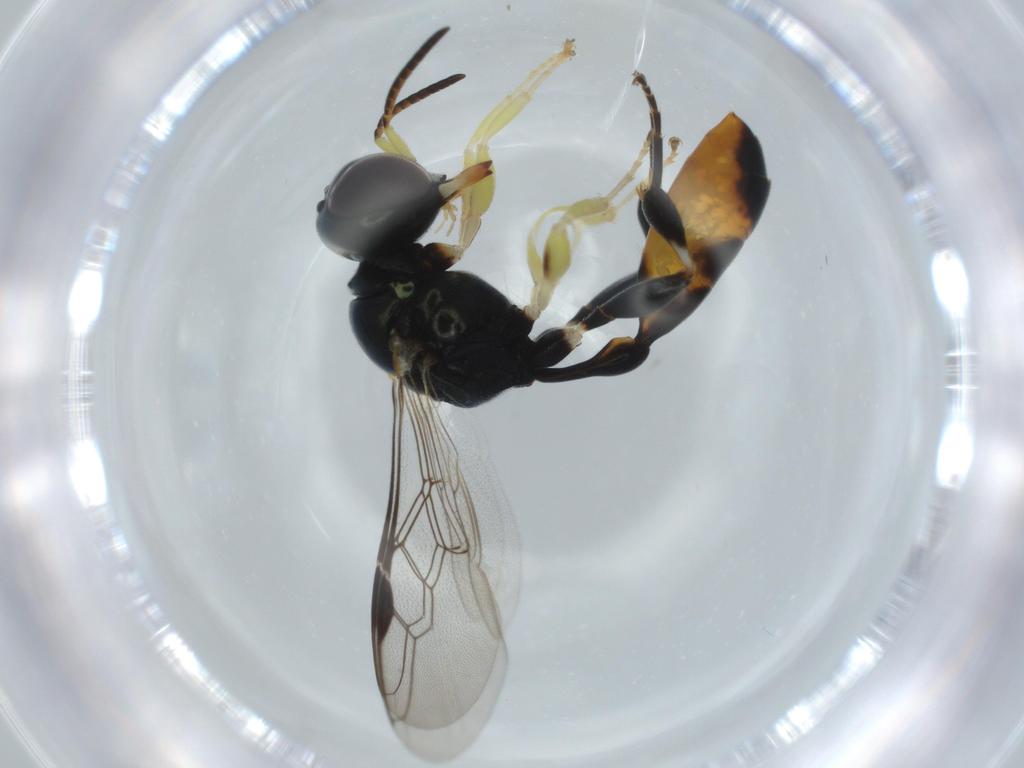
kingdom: Animalia
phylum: Arthropoda
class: Insecta
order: Hymenoptera
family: Crabronidae
